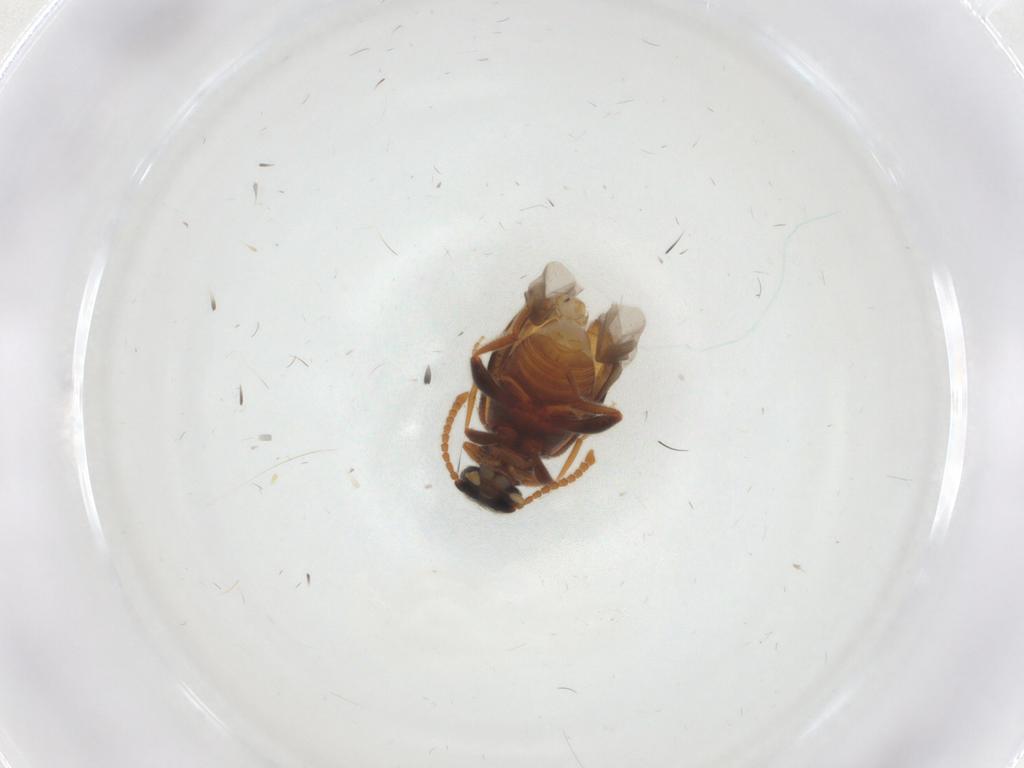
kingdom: Animalia
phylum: Arthropoda
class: Insecta
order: Coleoptera
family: Aderidae
